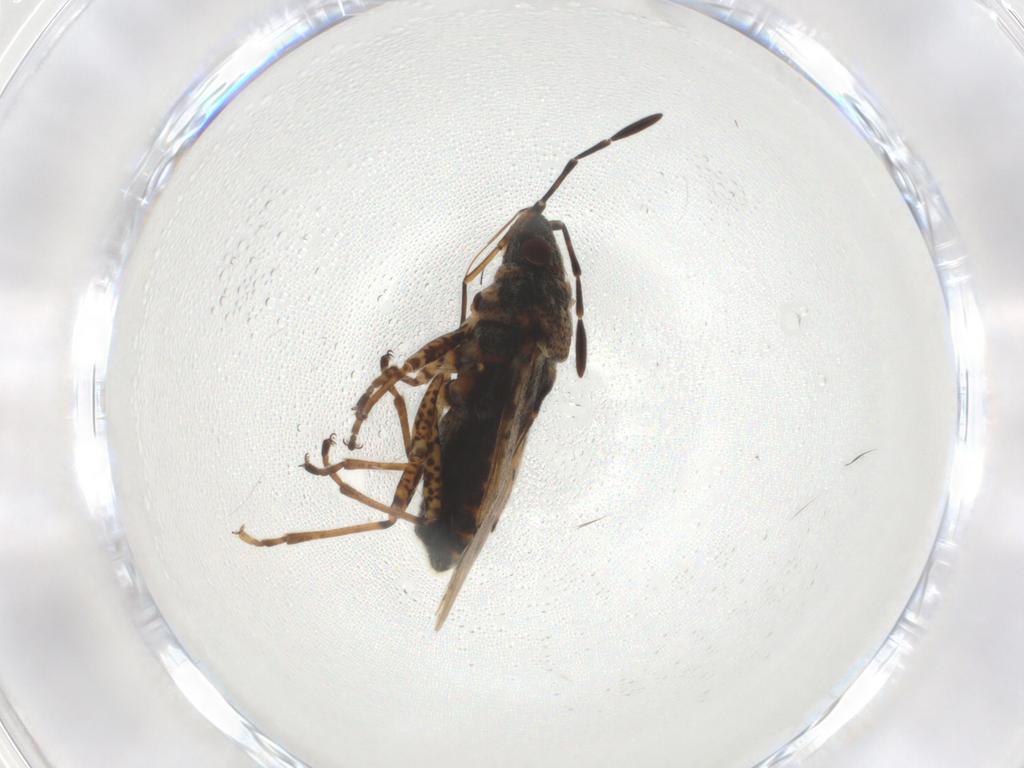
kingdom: Animalia
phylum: Arthropoda
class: Insecta
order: Hemiptera
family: Lygaeidae
